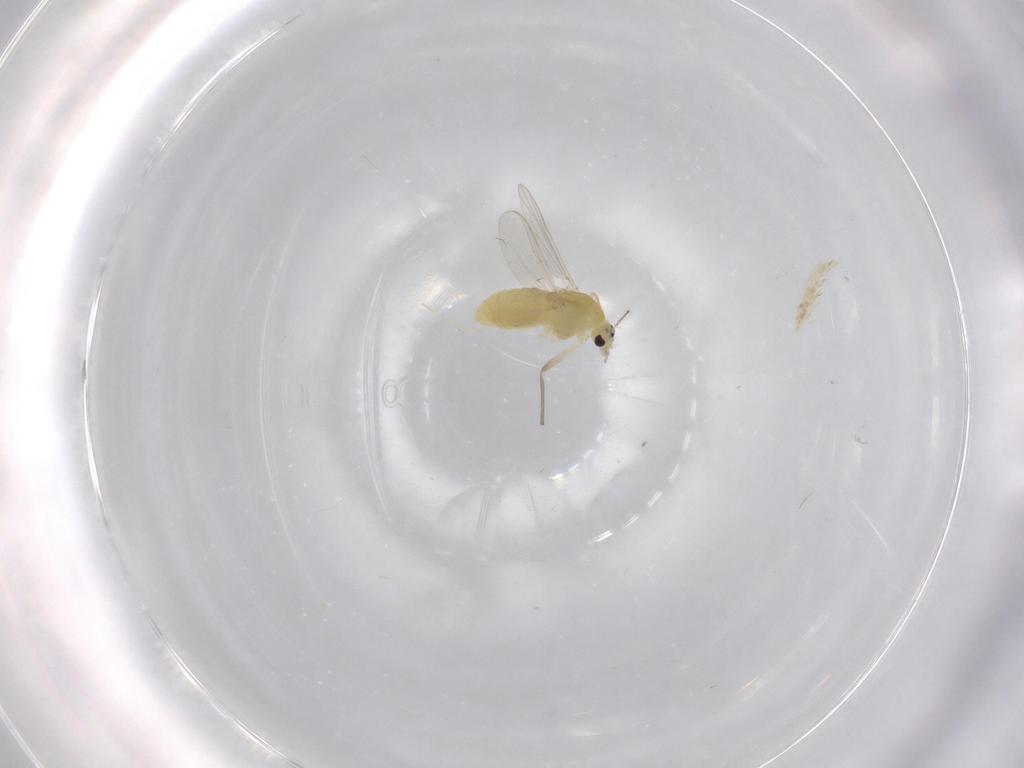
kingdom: Animalia
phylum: Arthropoda
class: Insecta
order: Diptera
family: Chironomidae
